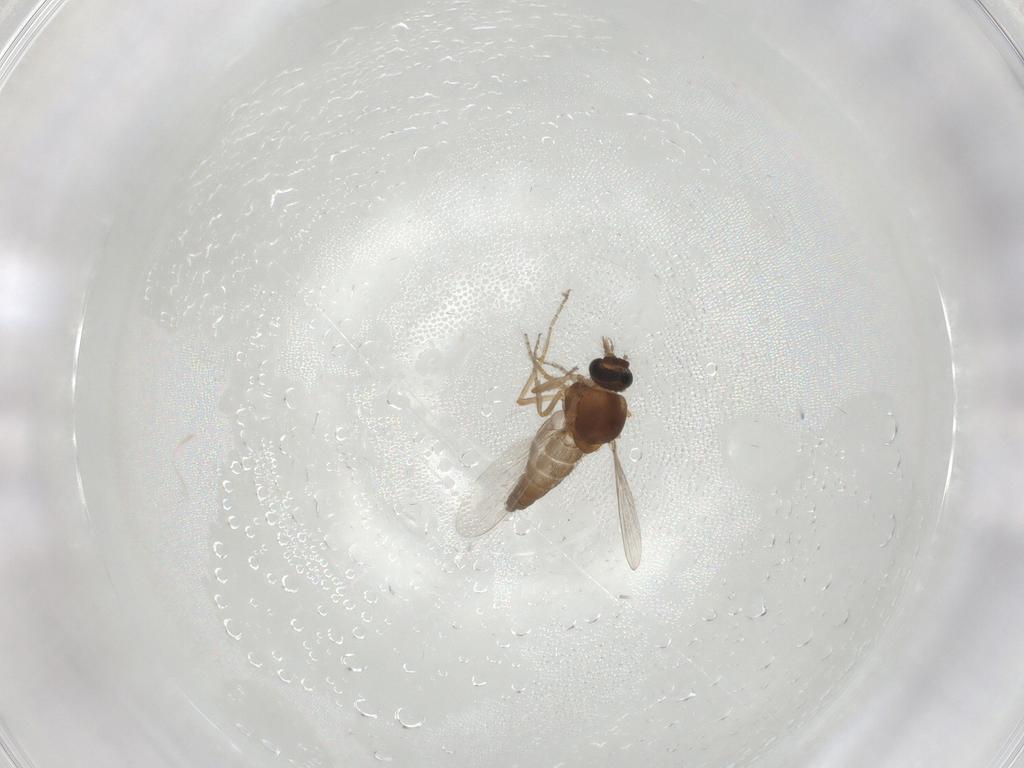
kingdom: Animalia
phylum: Arthropoda
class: Insecta
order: Diptera
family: Ceratopogonidae
